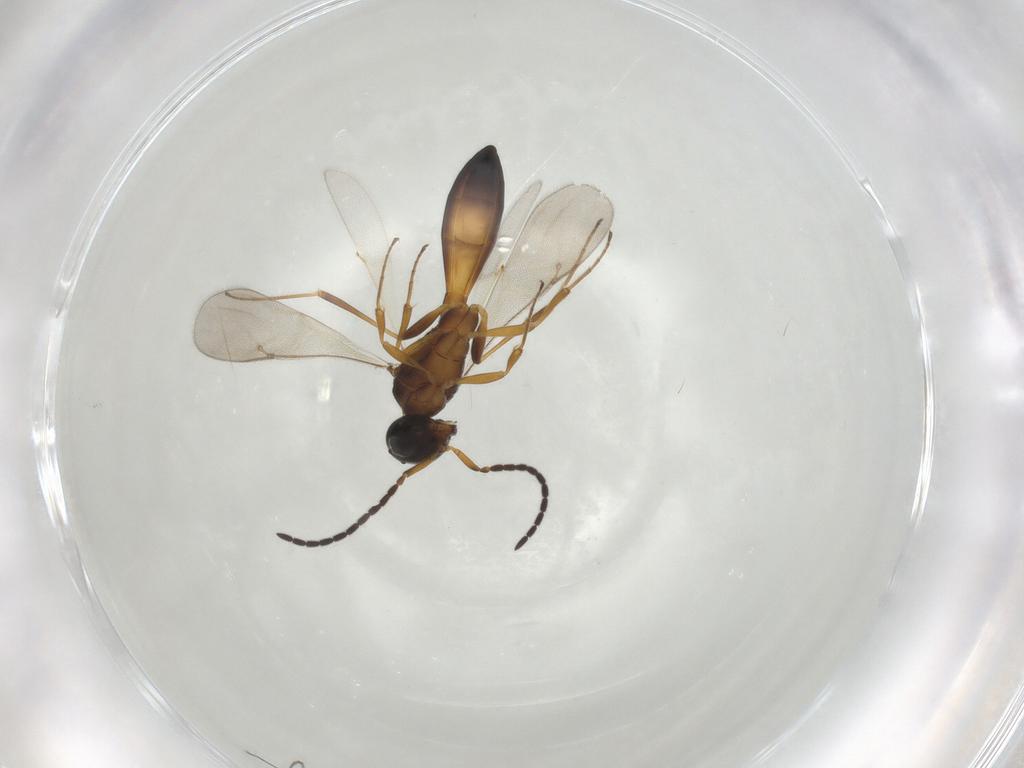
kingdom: Animalia
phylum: Arthropoda
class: Insecta
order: Hymenoptera
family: Scelionidae
